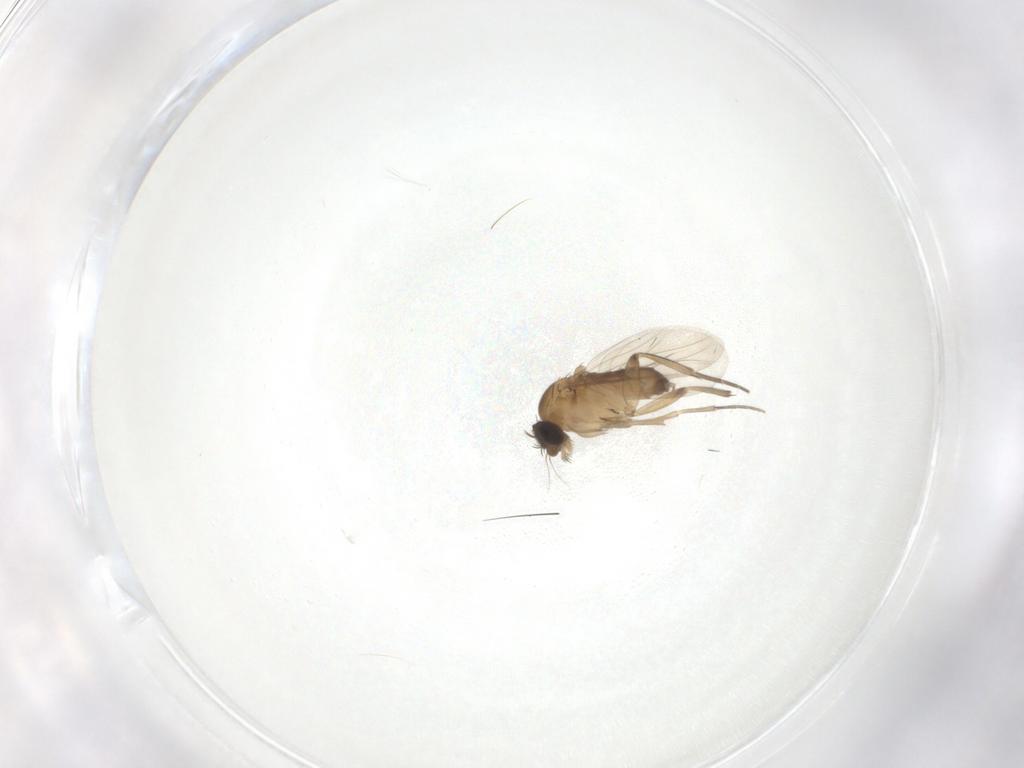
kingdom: Animalia
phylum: Arthropoda
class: Insecta
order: Diptera
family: Phoridae
